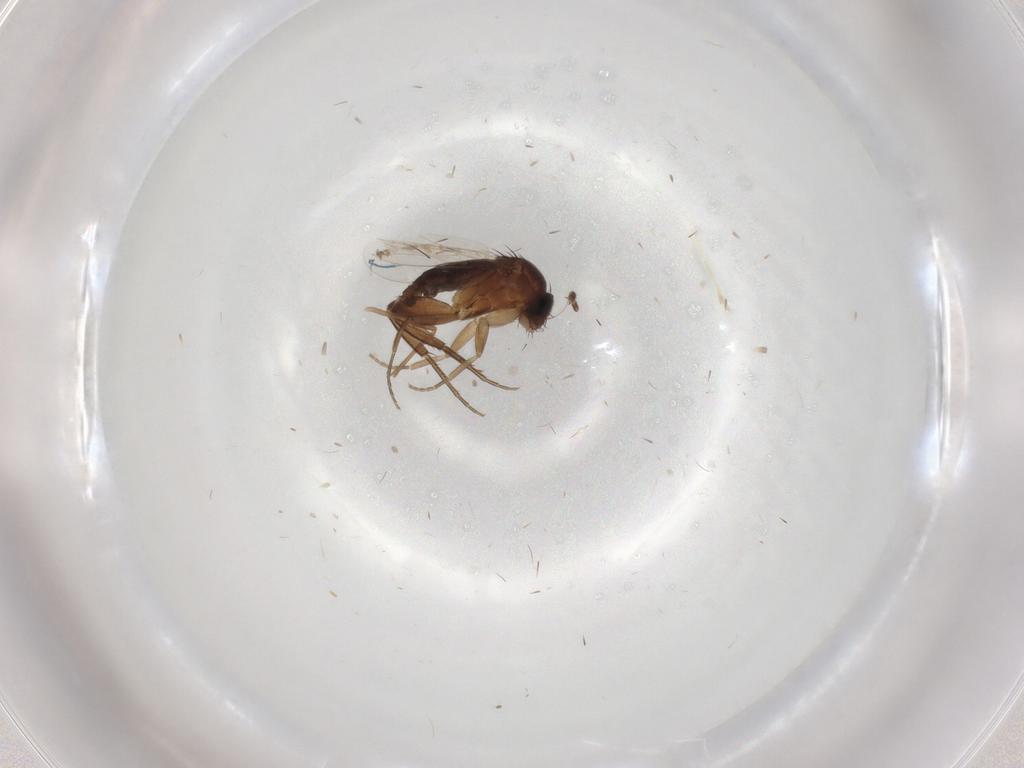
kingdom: Animalia
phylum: Arthropoda
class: Insecta
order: Diptera
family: Phoridae
